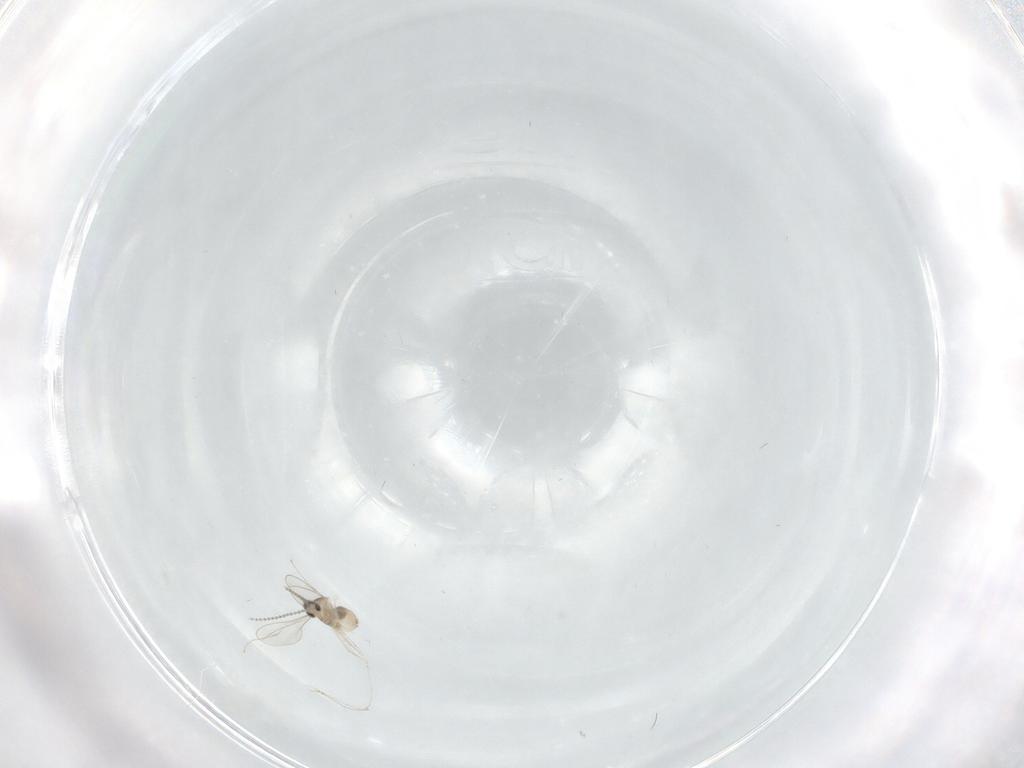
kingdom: Animalia
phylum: Arthropoda
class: Insecta
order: Diptera
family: Cecidomyiidae
